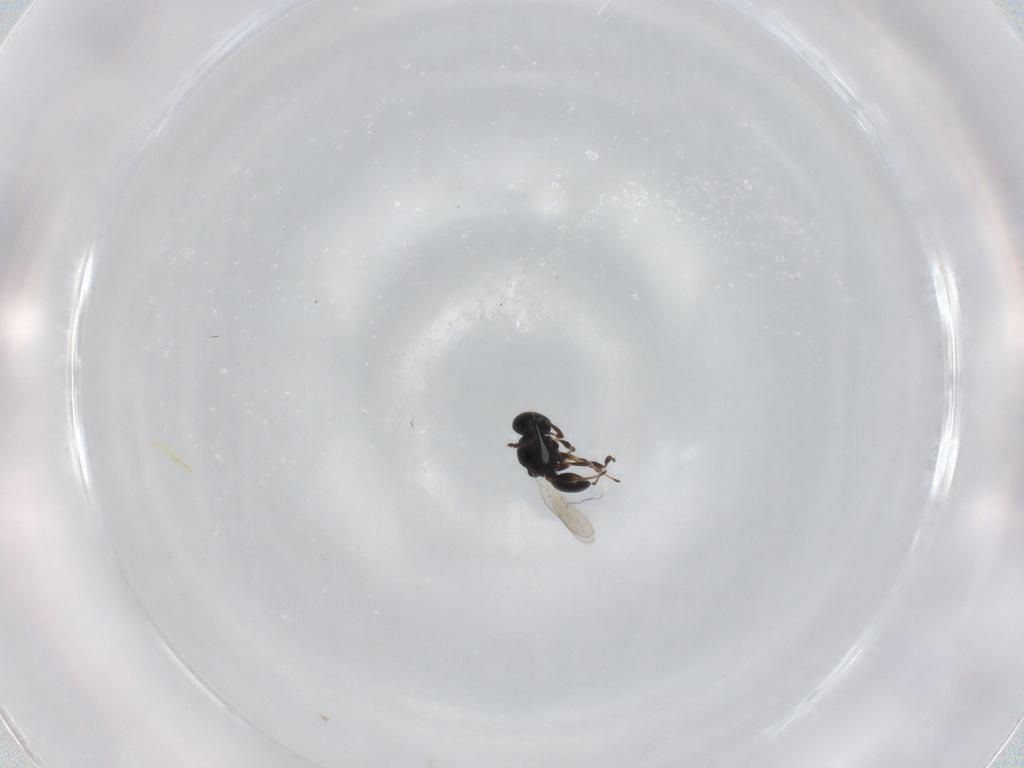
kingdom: Animalia
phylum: Arthropoda
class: Insecta
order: Hymenoptera
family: Platygastridae
